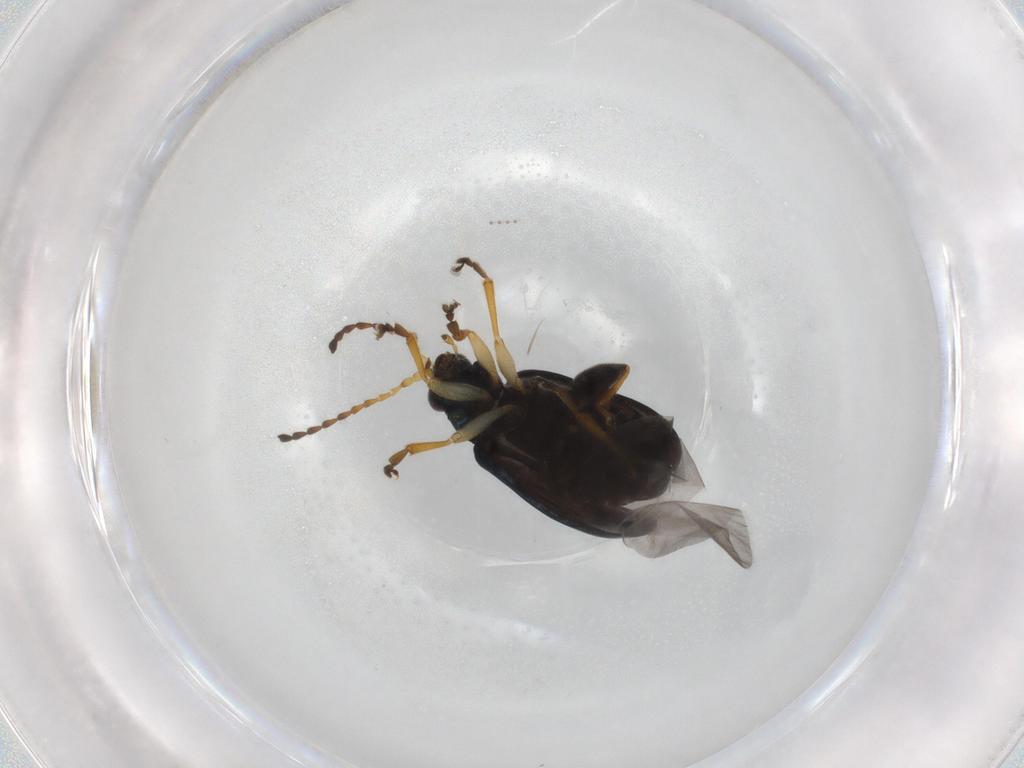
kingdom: Animalia
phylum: Arthropoda
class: Insecta
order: Coleoptera
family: Chrysomelidae
